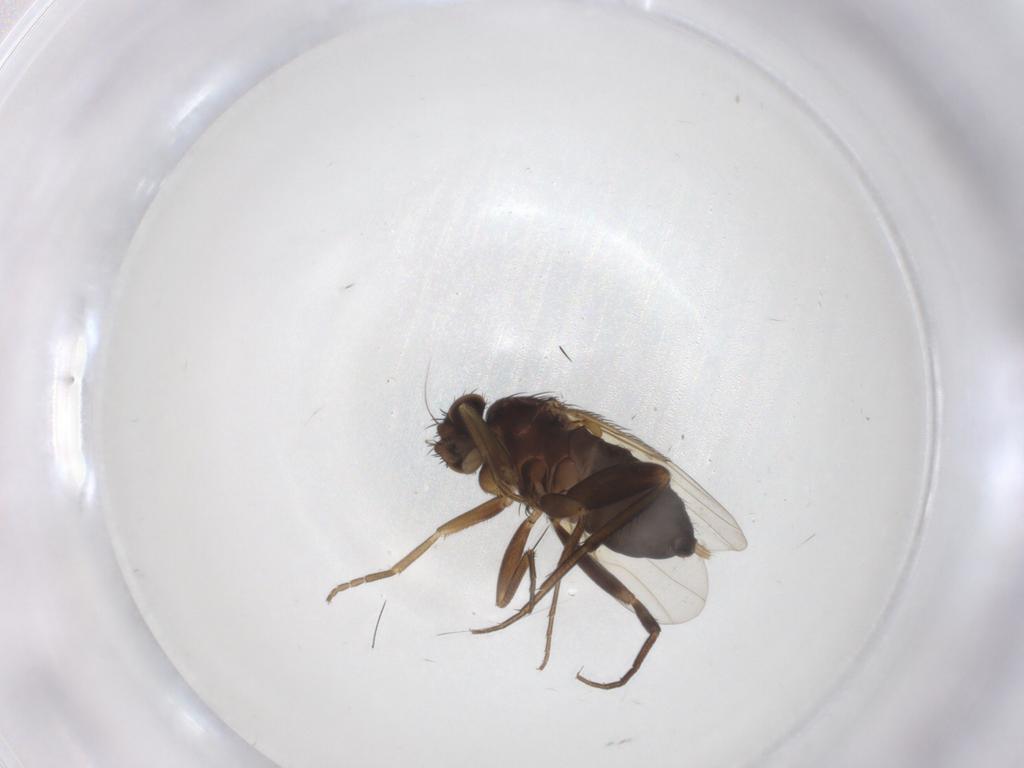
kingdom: Animalia
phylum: Arthropoda
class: Insecta
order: Diptera
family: Phoridae
